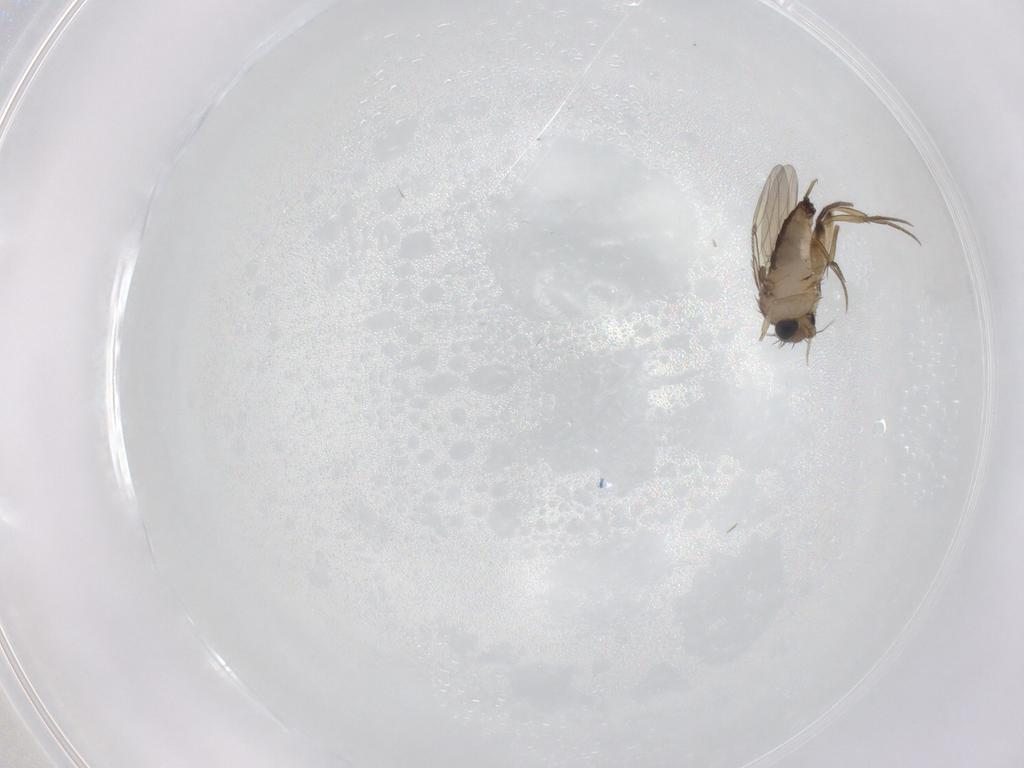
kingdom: Animalia
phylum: Arthropoda
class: Insecta
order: Diptera
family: Phoridae
